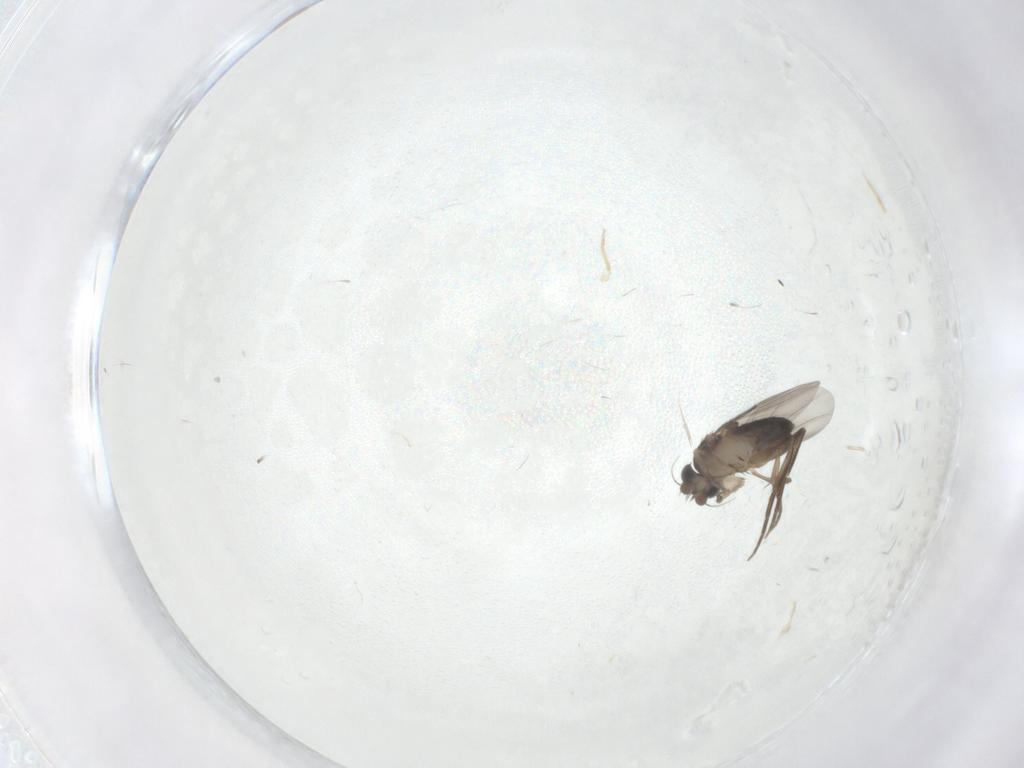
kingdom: Animalia
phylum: Arthropoda
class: Insecta
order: Diptera
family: Phoridae
